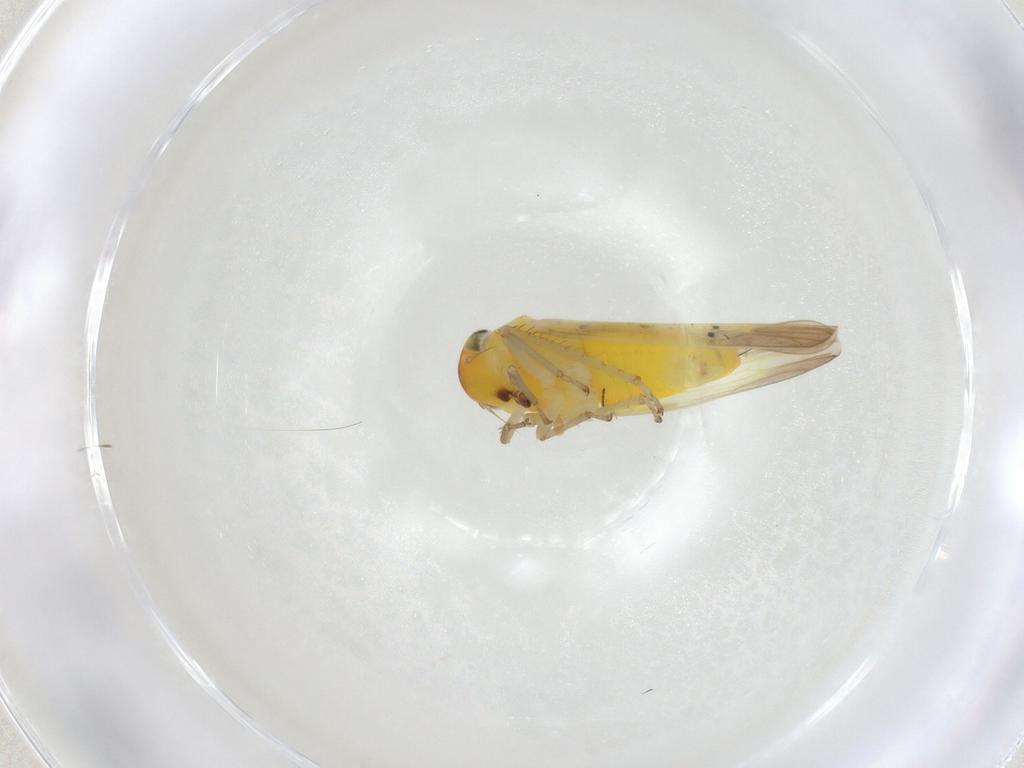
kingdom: Animalia
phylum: Arthropoda
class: Insecta
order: Hemiptera
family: Cicadellidae
